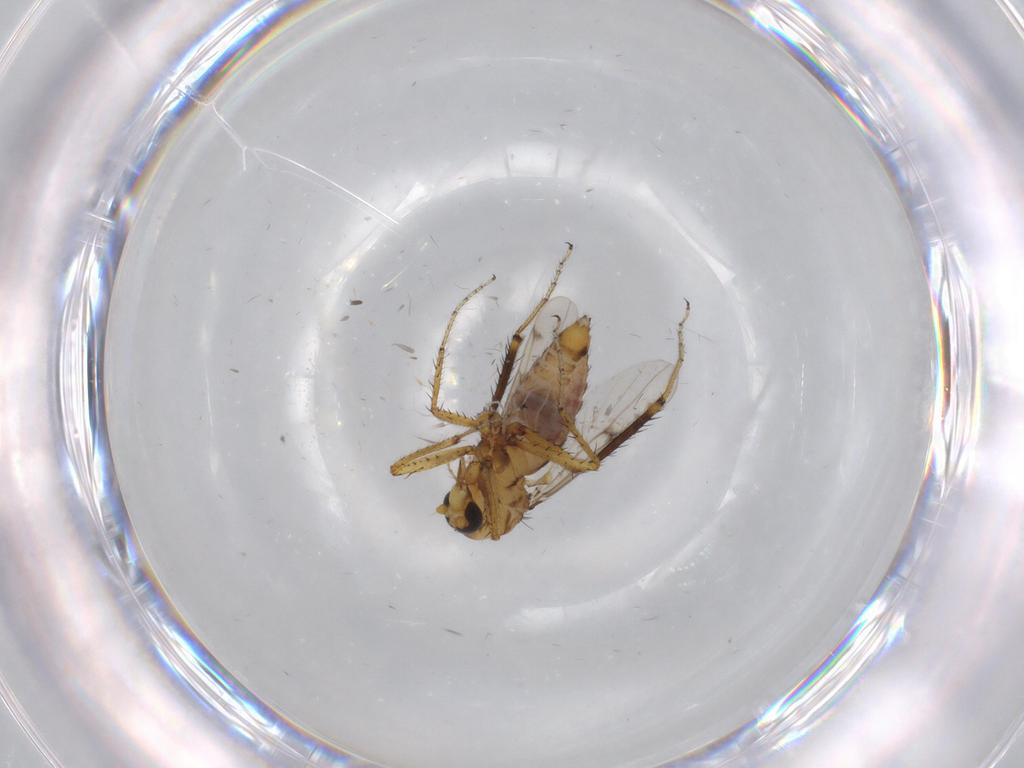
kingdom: Animalia
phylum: Arthropoda
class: Insecta
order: Diptera
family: Ceratopogonidae
